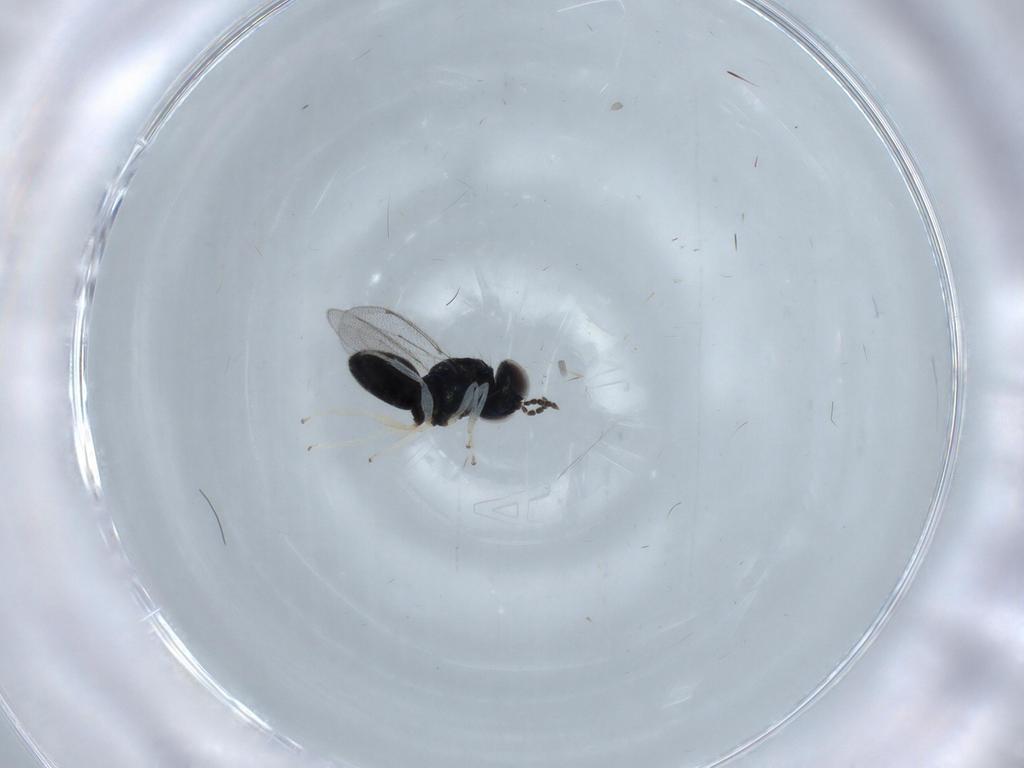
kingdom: Animalia
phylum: Arthropoda
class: Insecta
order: Hymenoptera
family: Eulophidae
